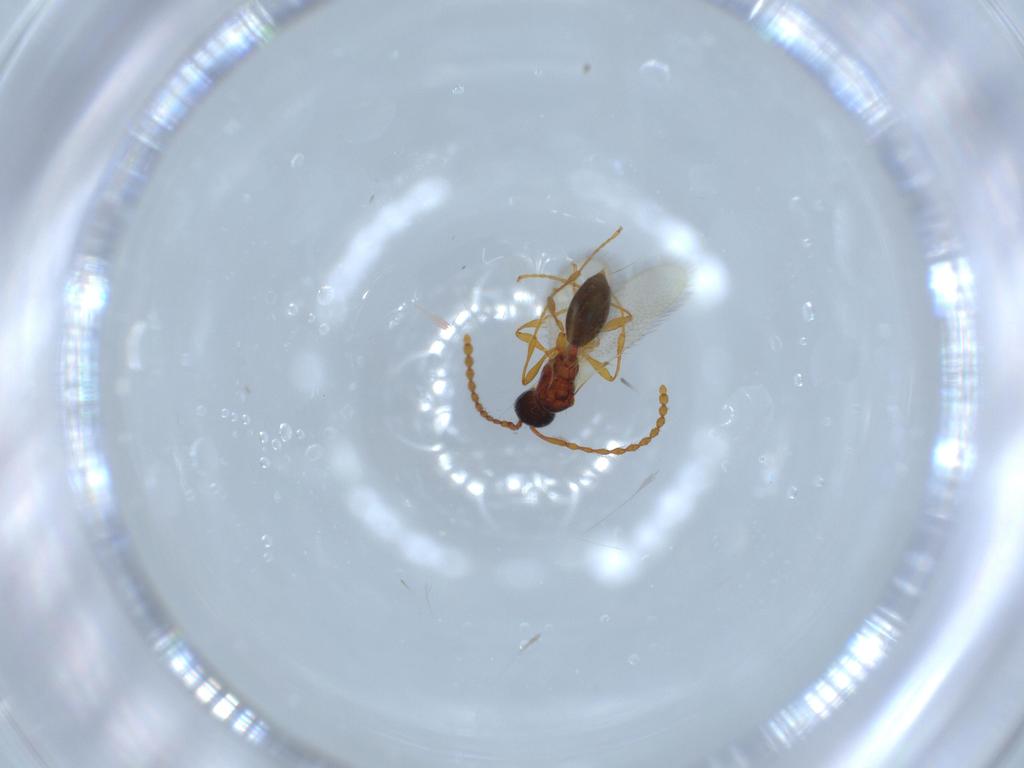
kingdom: Animalia
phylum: Arthropoda
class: Insecta
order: Hymenoptera
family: Diapriidae
